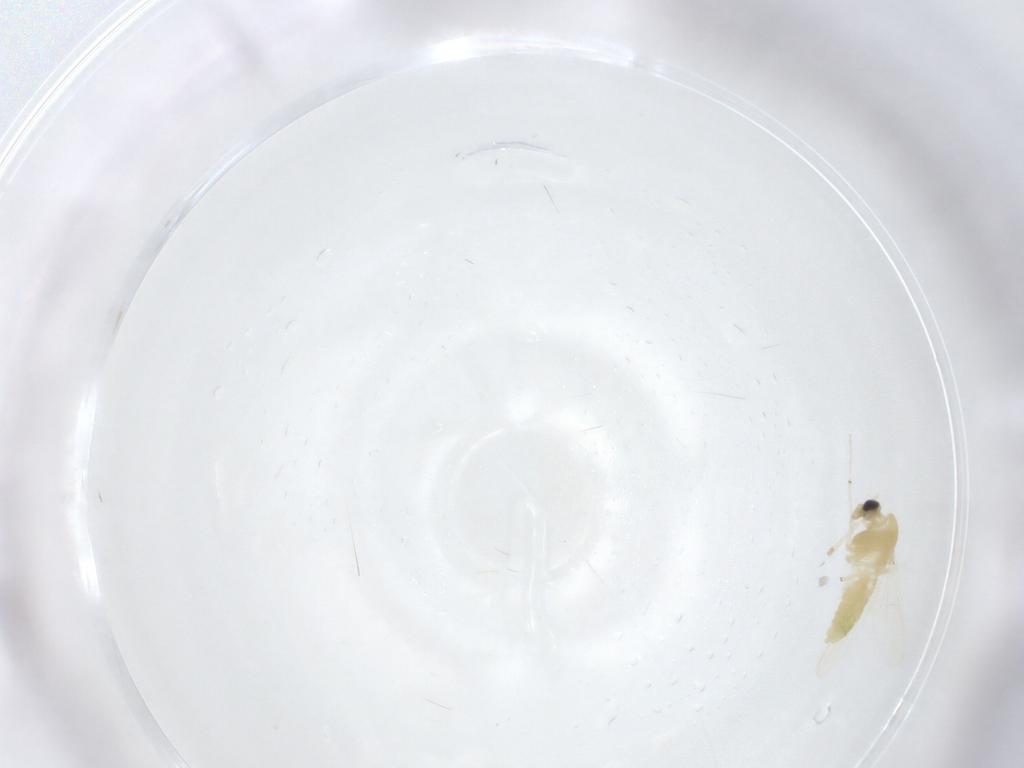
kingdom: Animalia
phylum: Arthropoda
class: Insecta
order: Diptera
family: Chironomidae
